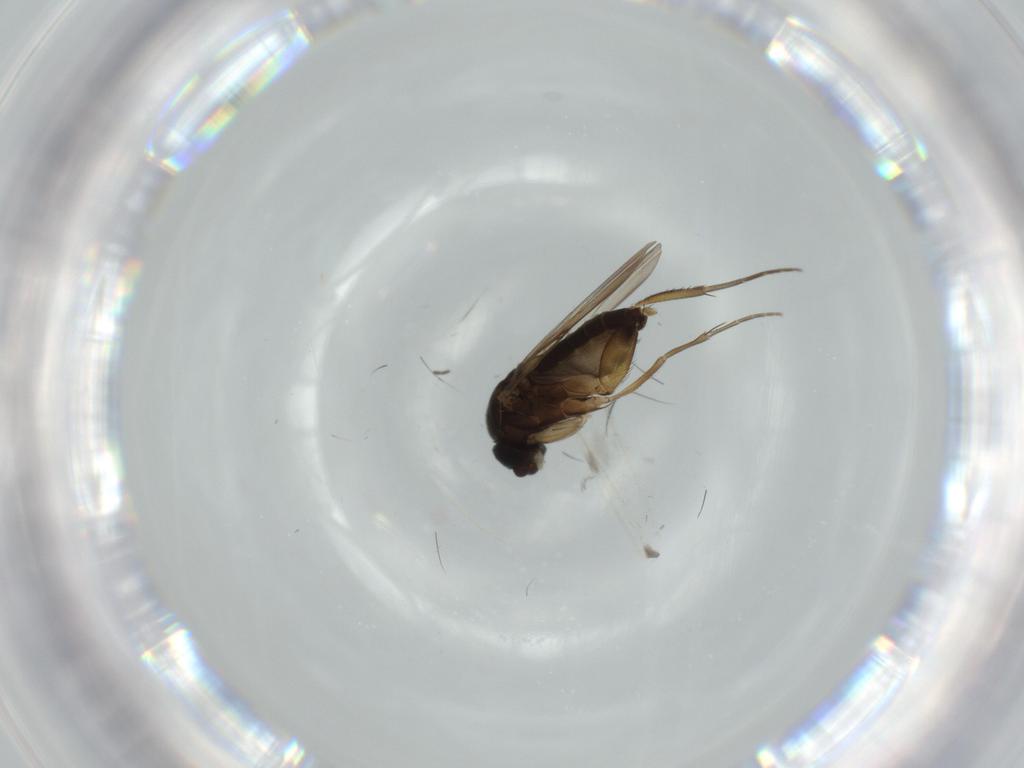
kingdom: Animalia
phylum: Arthropoda
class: Insecta
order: Diptera
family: Phoridae
